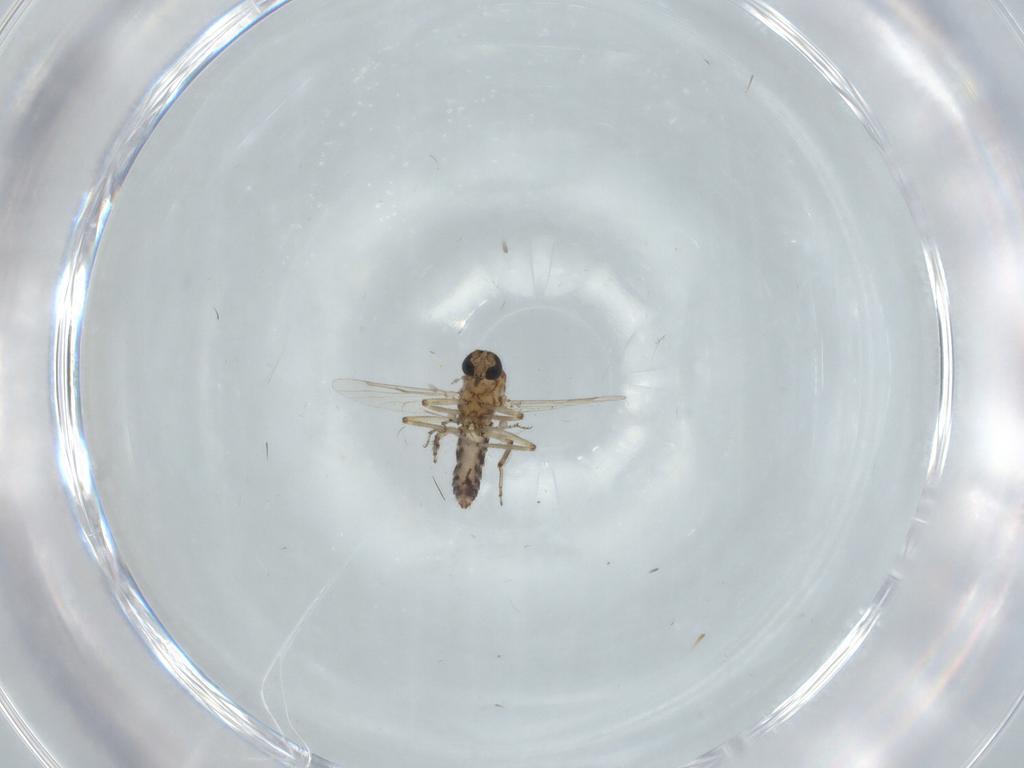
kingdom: Animalia
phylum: Arthropoda
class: Insecta
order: Diptera
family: Ceratopogonidae
